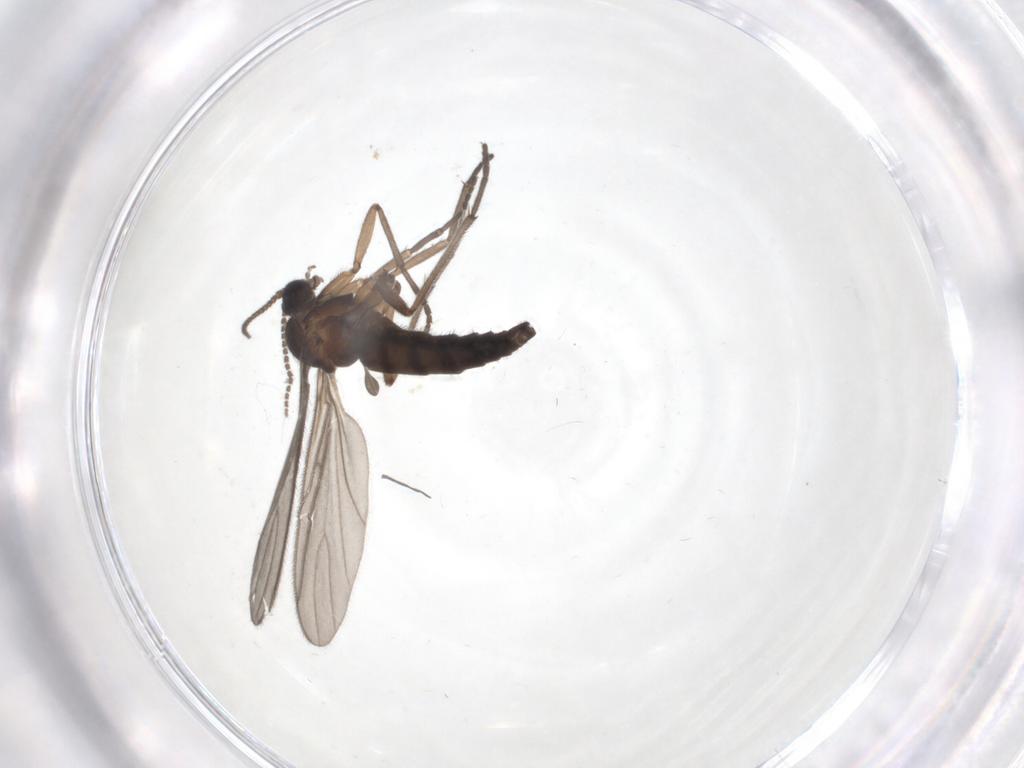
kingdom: Animalia
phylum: Arthropoda
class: Insecta
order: Diptera
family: Sciaridae
